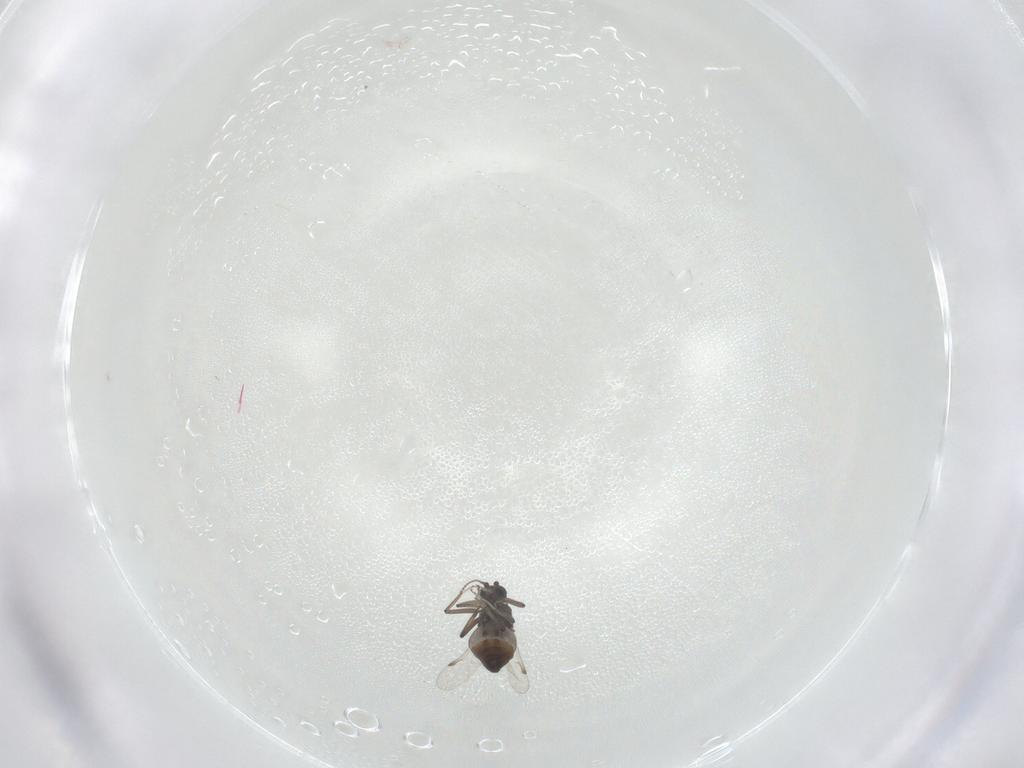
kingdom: Animalia
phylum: Arthropoda
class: Insecta
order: Diptera
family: Chironomidae
